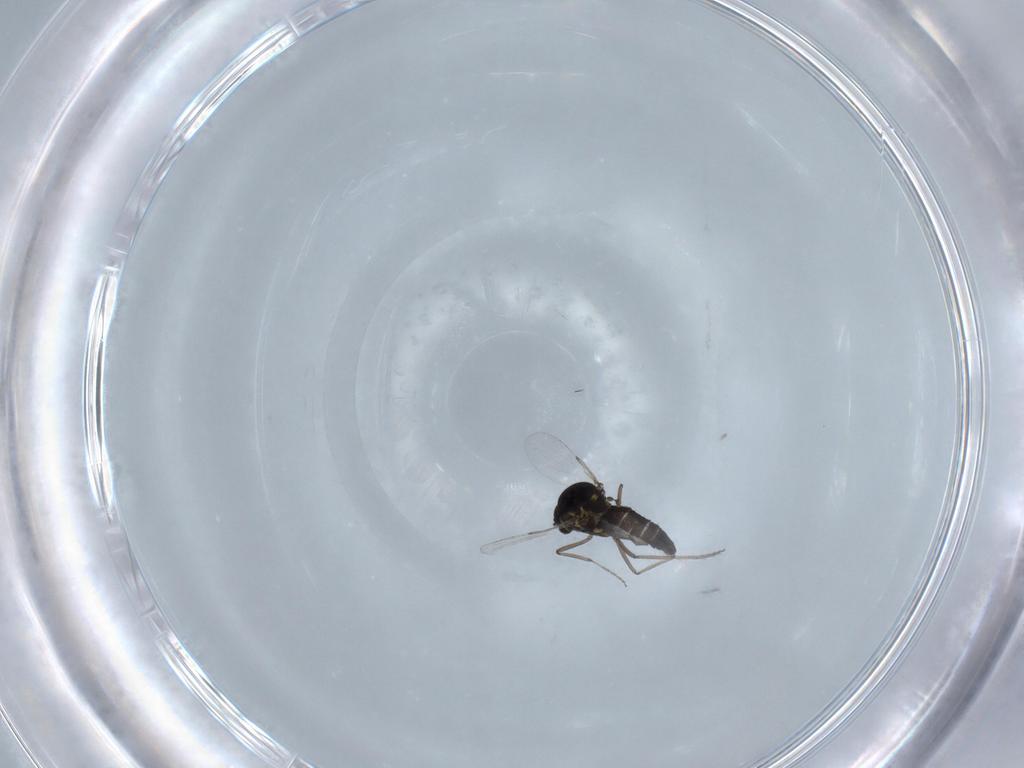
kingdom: Animalia
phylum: Arthropoda
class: Insecta
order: Diptera
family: Ceratopogonidae
